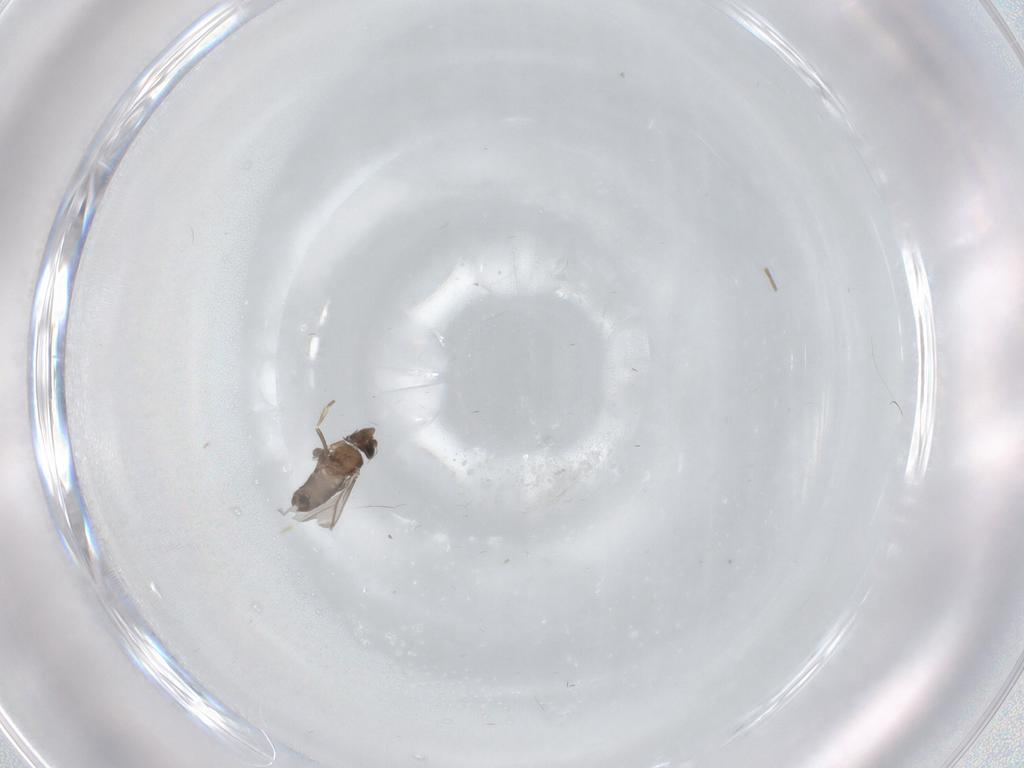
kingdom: Animalia
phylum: Arthropoda
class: Insecta
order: Diptera
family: Sciaridae
